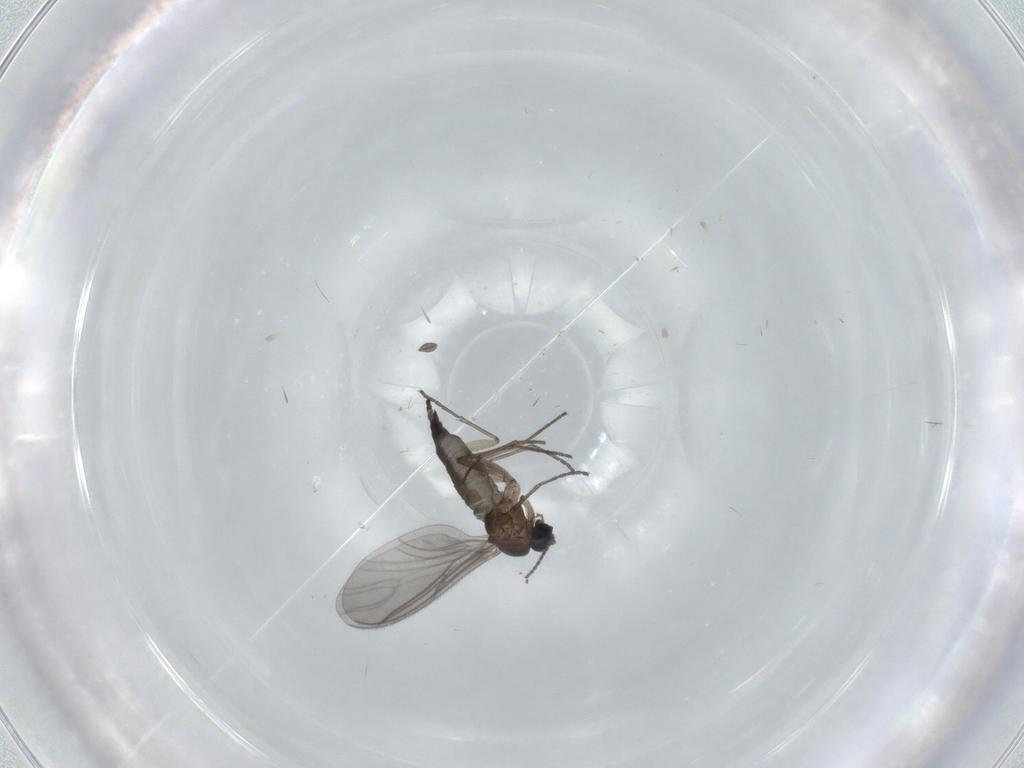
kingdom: Animalia
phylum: Arthropoda
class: Insecta
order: Diptera
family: Sciaridae
